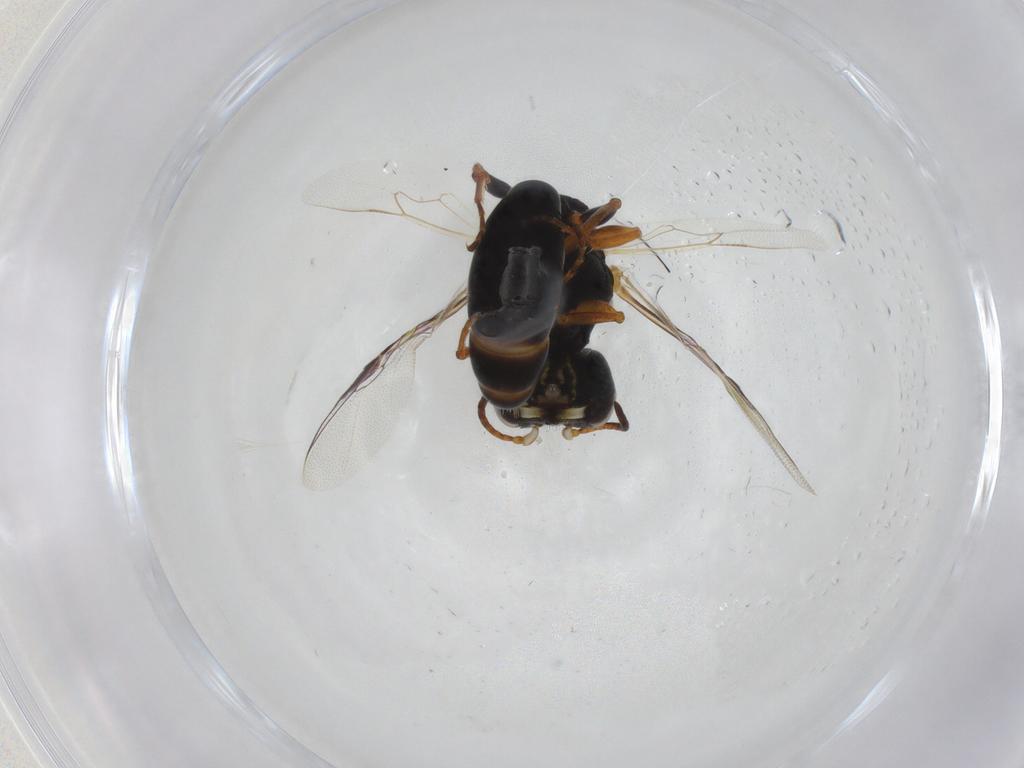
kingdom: Animalia
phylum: Arthropoda
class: Insecta
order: Hymenoptera
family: Pemphredonidae
